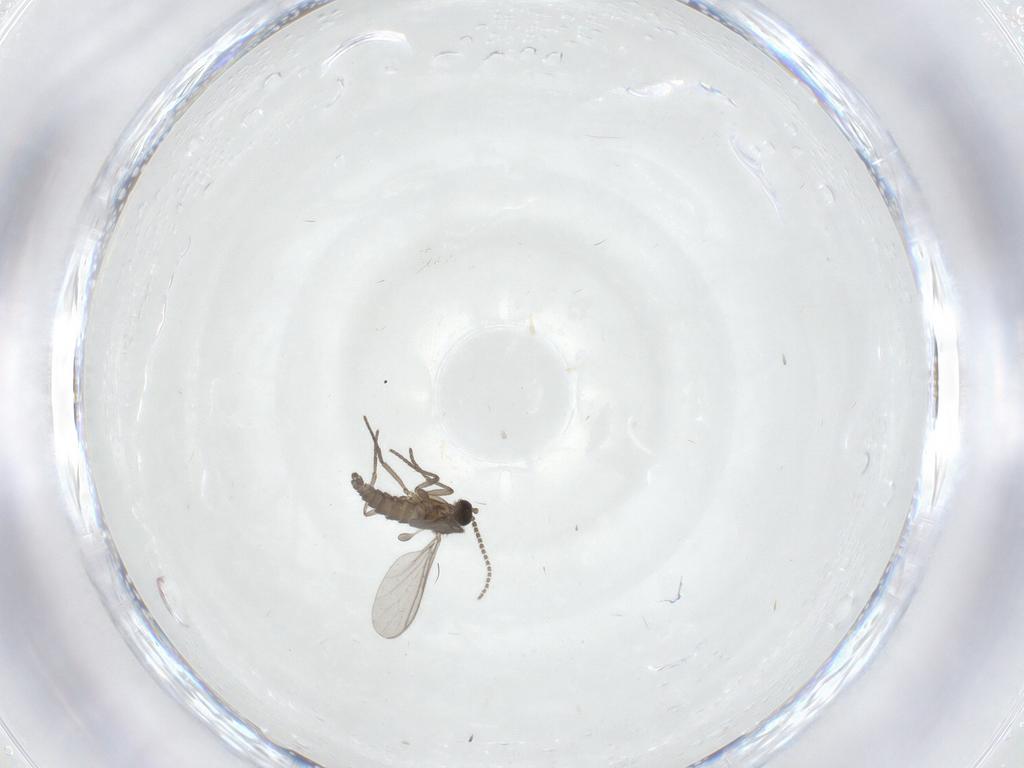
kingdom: Animalia
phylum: Arthropoda
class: Insecta
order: Diptera
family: Sciaridae
